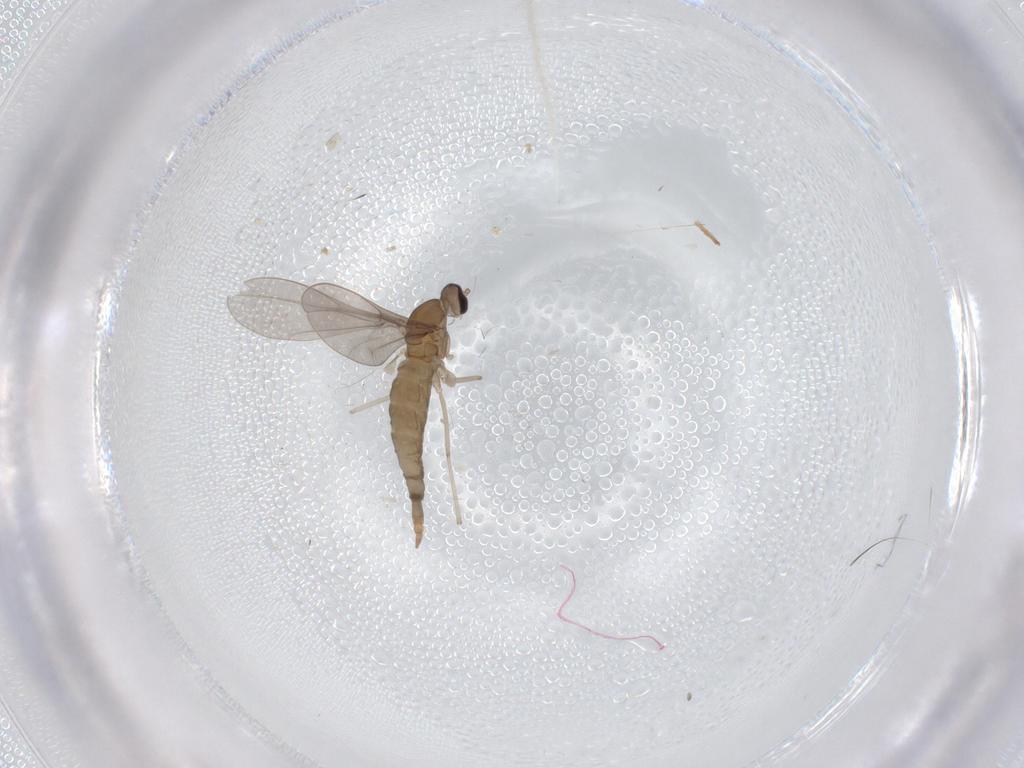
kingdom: Animalia
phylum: Arthropoda
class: Insecta
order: Diptera
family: Cecidomyiidae
